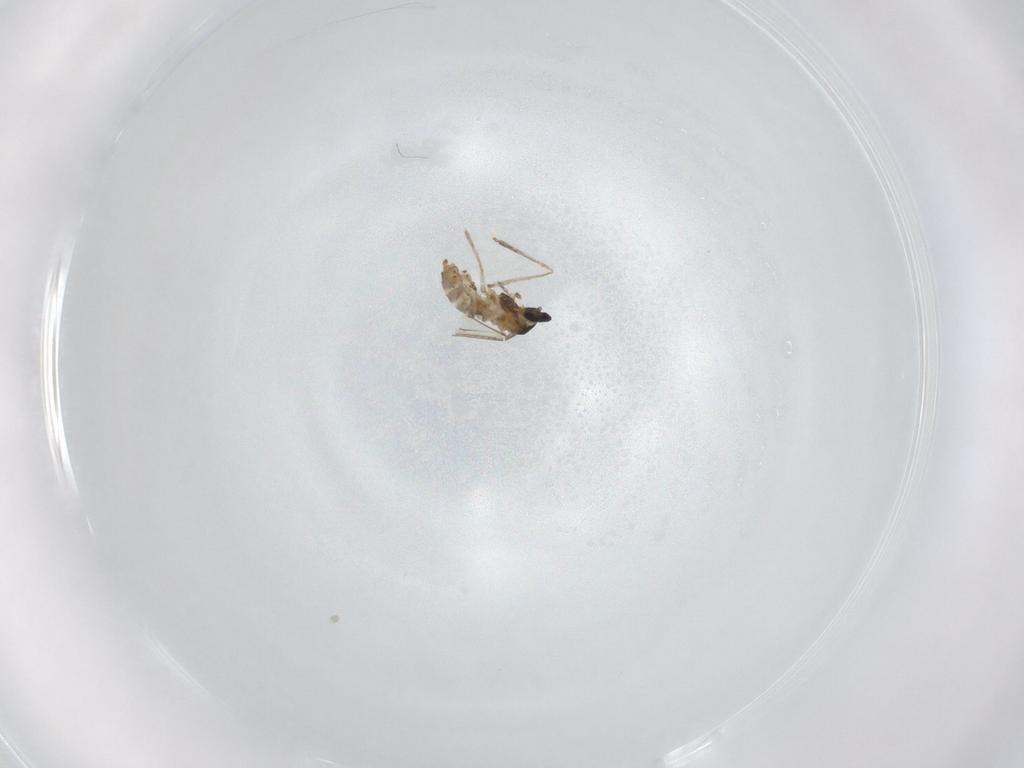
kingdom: Animalia
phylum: Arthropoda
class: Insecta
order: Diptera
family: Cecidomyiidae
